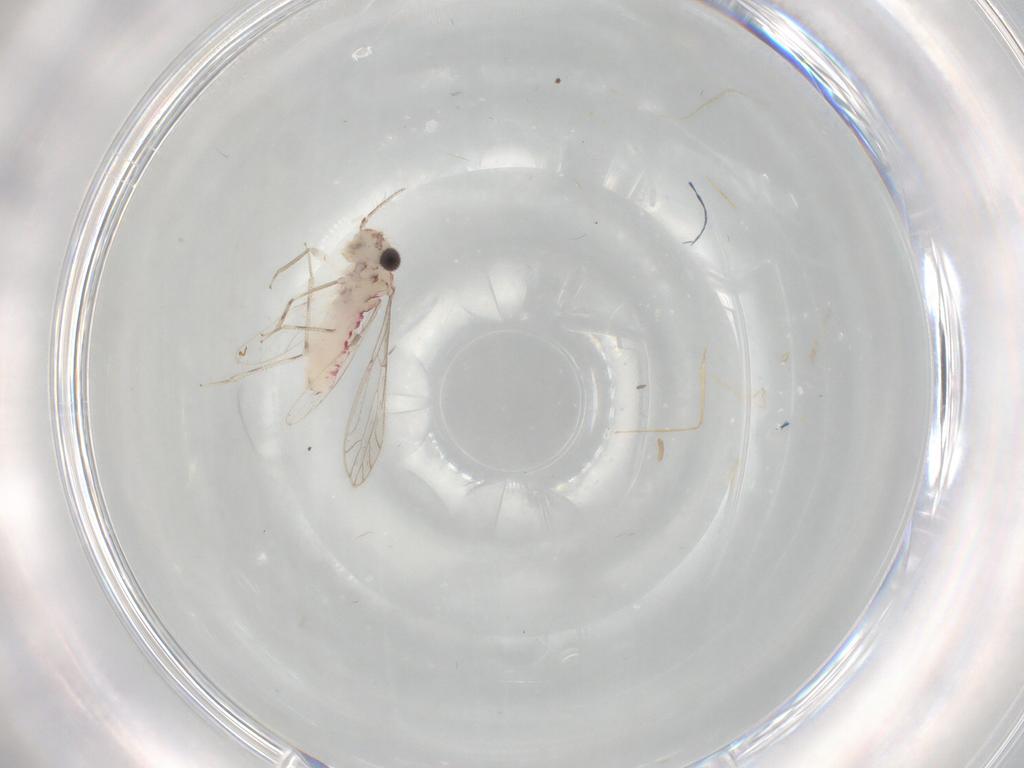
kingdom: Animalia
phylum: Arthropoda
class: Insecta
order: Psocodea
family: Caeciliusidae
